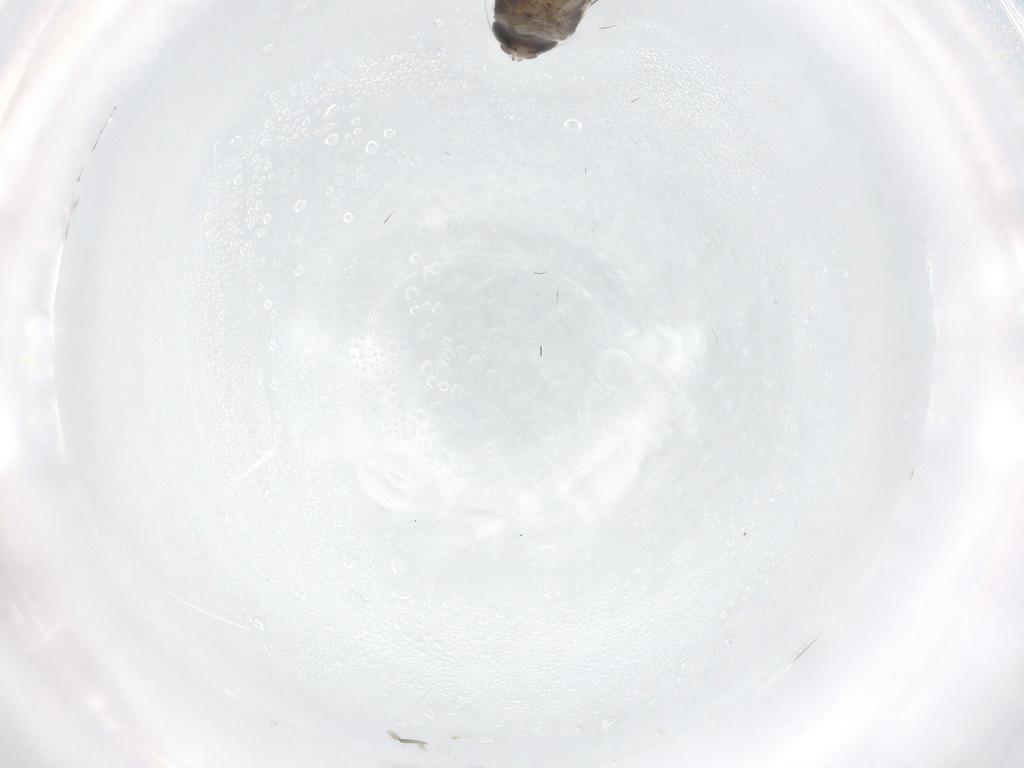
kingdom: Animalia
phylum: Arthropoda
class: Insecta
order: Diptera
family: Phoridae
